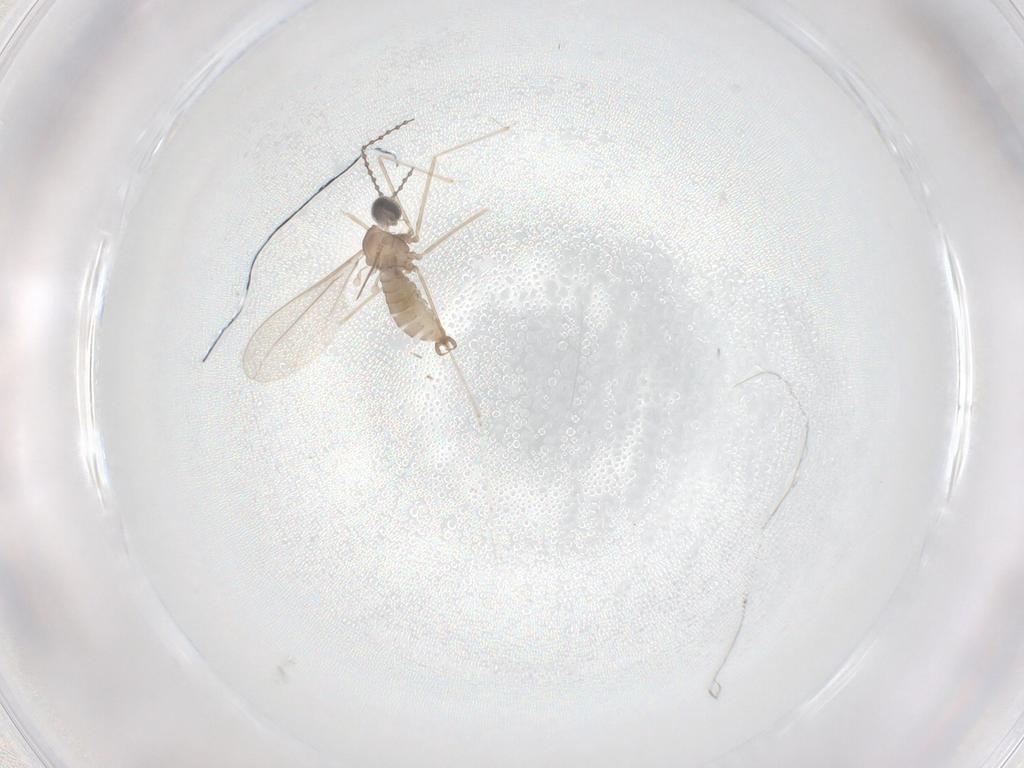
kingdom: Animalia
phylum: Arthropoda
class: Insecta
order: Diptera
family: Cecidomyiidae
